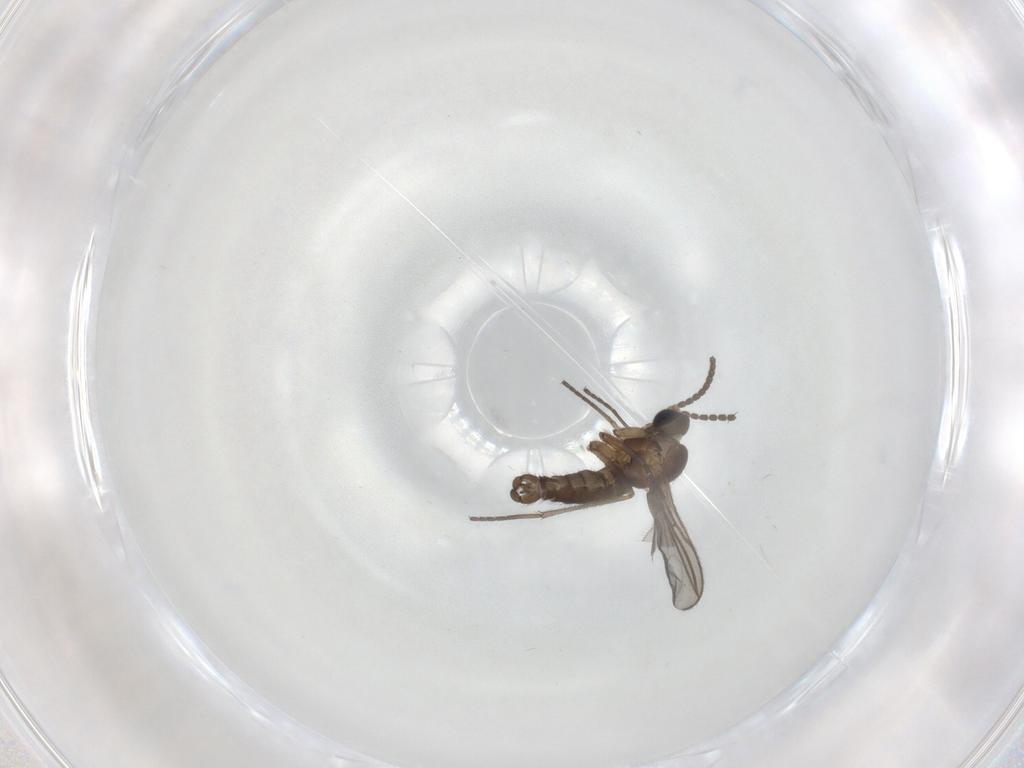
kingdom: Animalia
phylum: Arthropoda
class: Insecta
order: Diptera
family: Sciaridae
